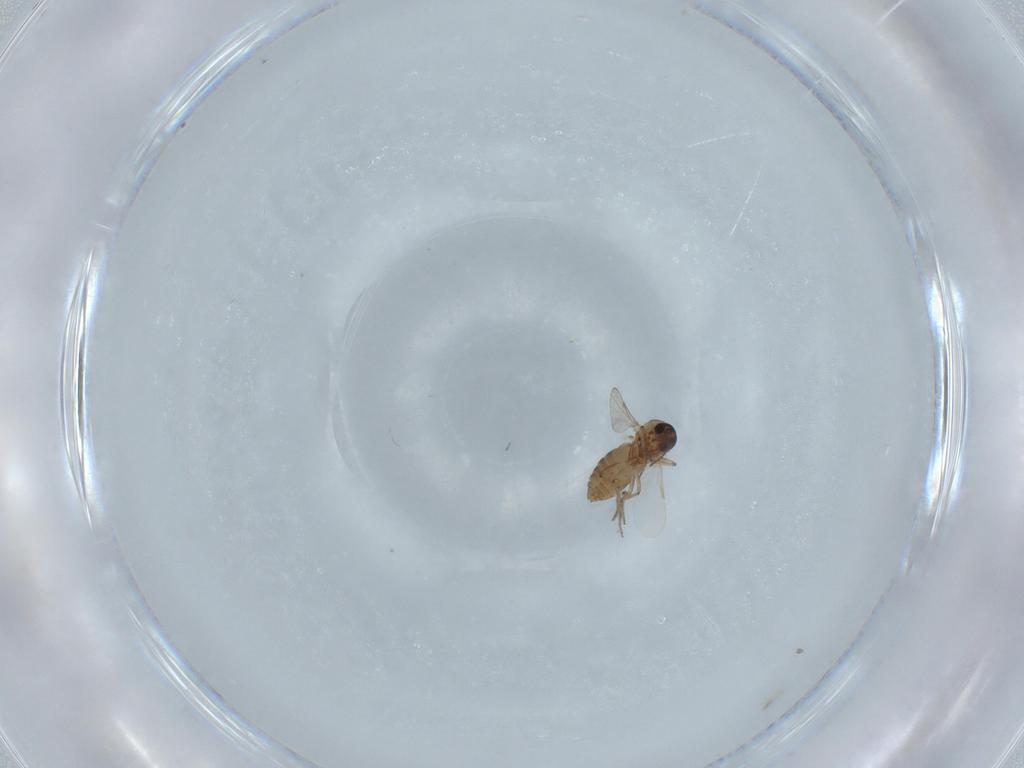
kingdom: Animalia
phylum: Arthropoda
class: Insecta
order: Diptera
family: Ceratopogonidae
